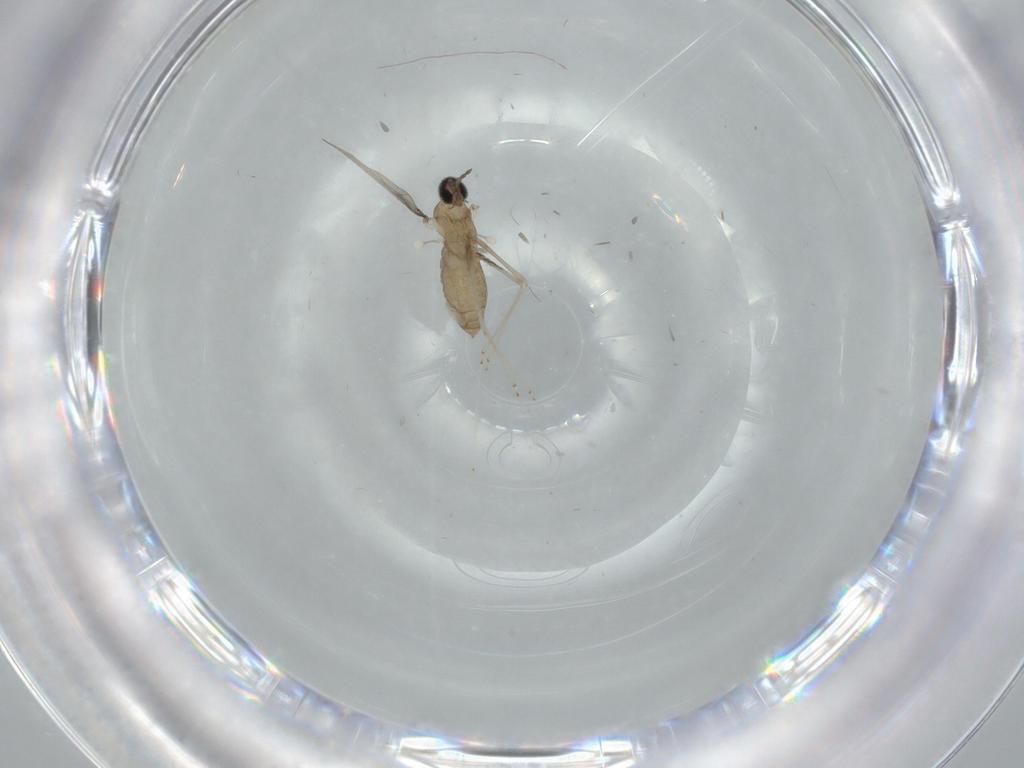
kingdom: Animalia
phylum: Arthropoda
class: Insecta
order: Diptera
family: Cecidomyiidae
